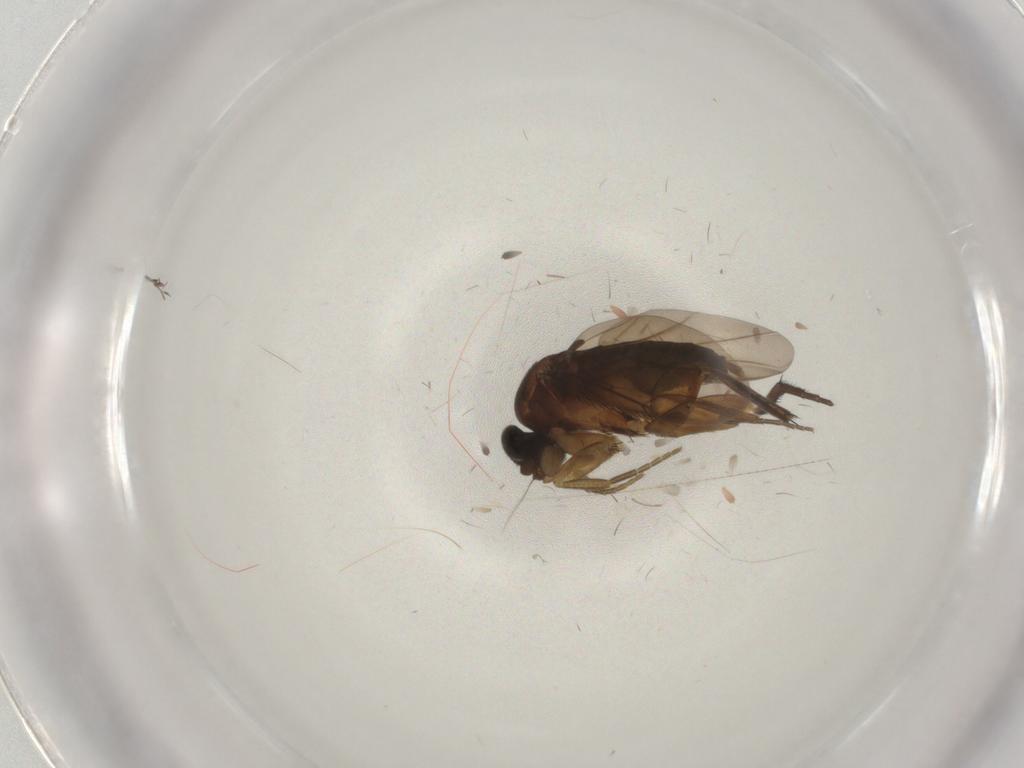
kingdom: Animalia
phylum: Arthropoda
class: Insecta
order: Diptera
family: Phoridae
